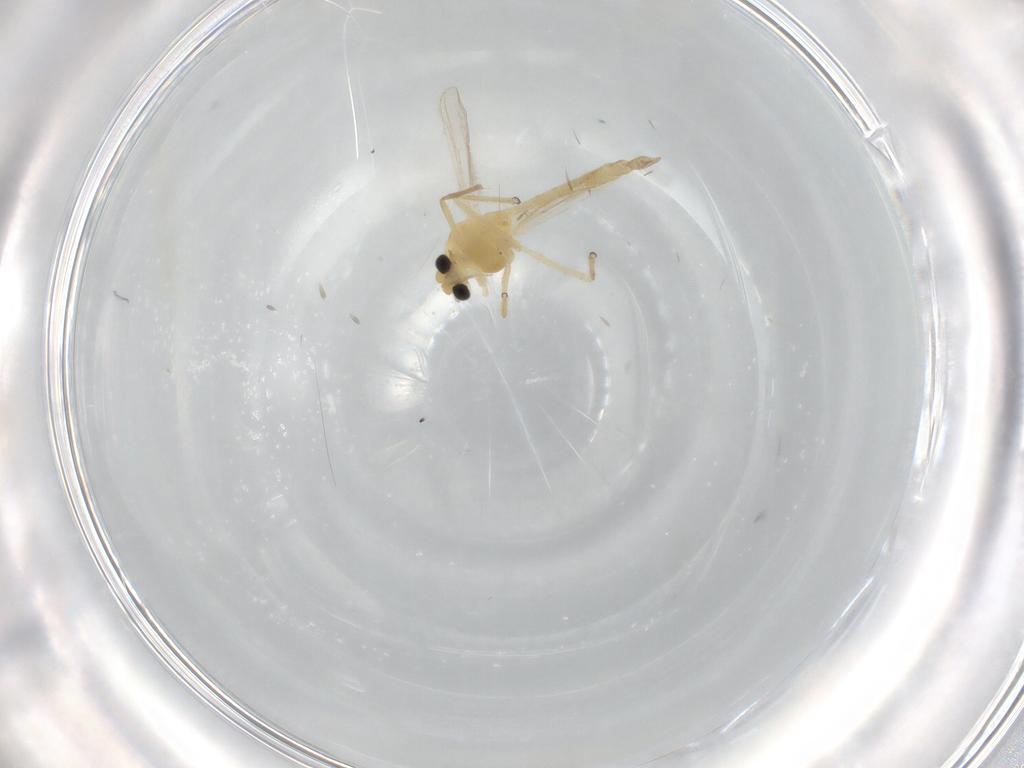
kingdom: Animalia
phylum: Arthropoda
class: Insecta
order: Diptera
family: Chironomidae
